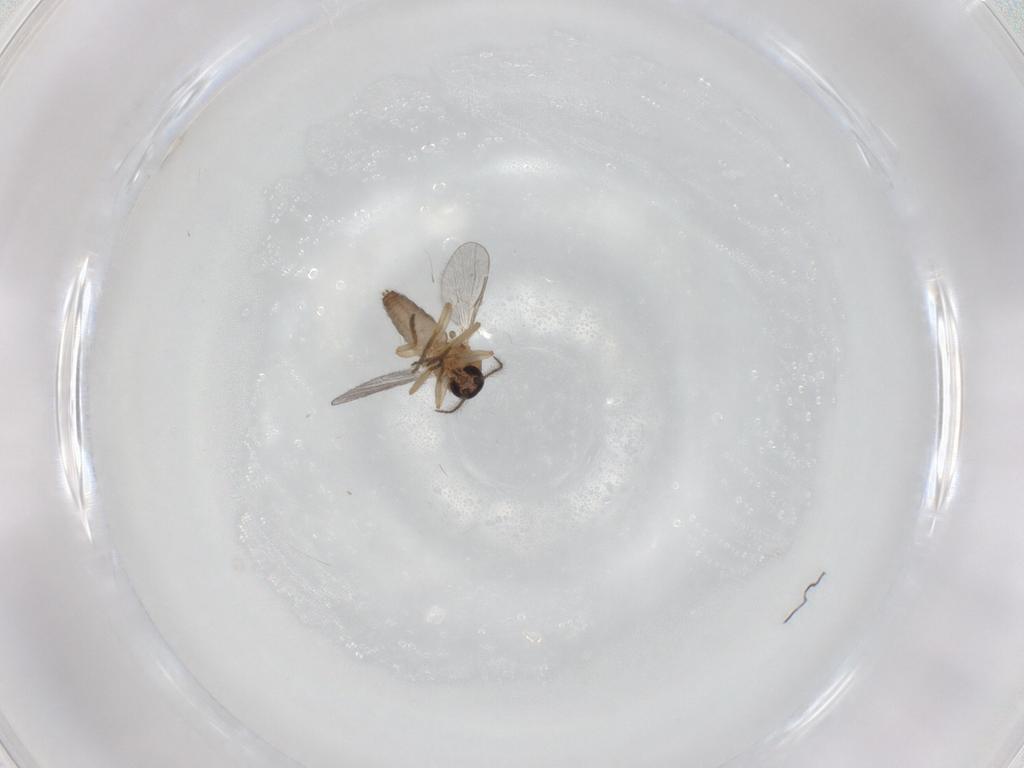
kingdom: Animalia
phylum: Arthropoda
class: Insecta
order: Diptera
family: Chironomidae
